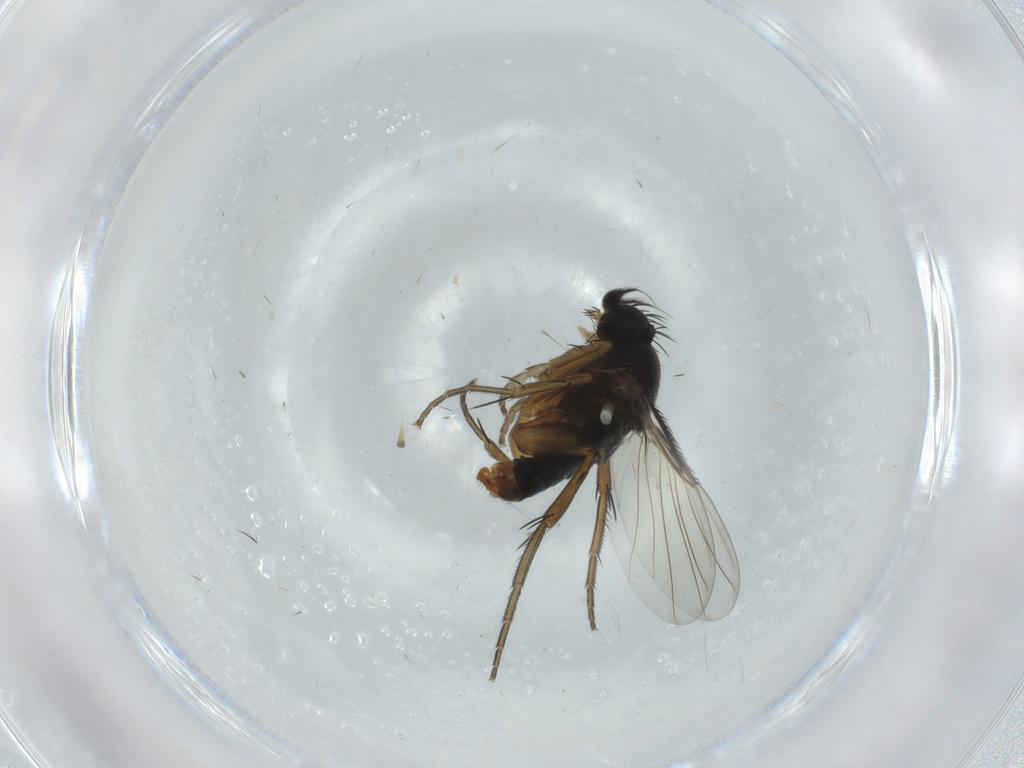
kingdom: Animalia
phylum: Arthropoda
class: Insecta
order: Diptera
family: Phoridae
